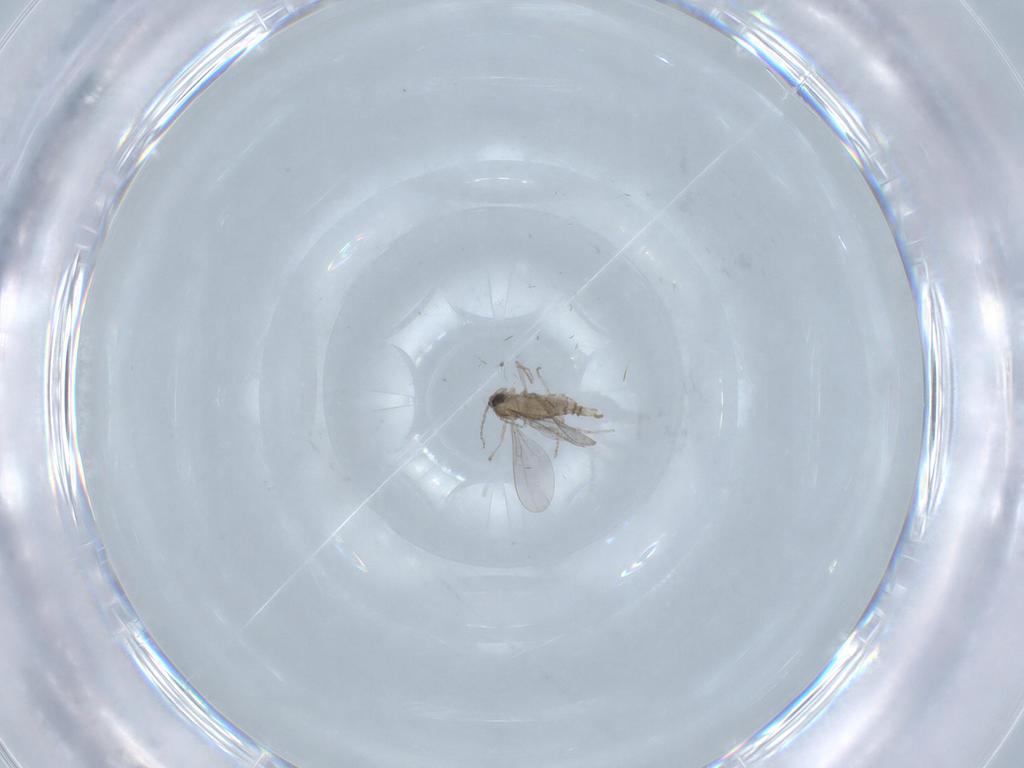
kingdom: Animalia
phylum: Arthropoda
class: Insecta
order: Diptera
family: Cecidomyiidae
